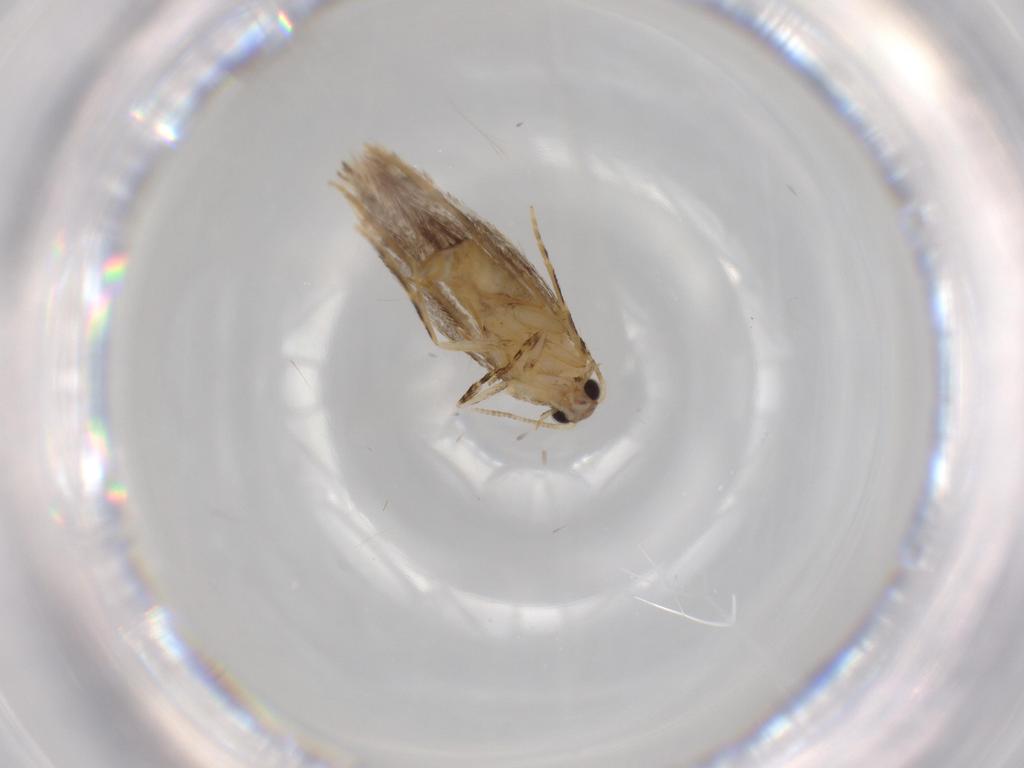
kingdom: Animalia
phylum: Arthropoda
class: Insecta
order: Lepidoptera
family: Tineidae
